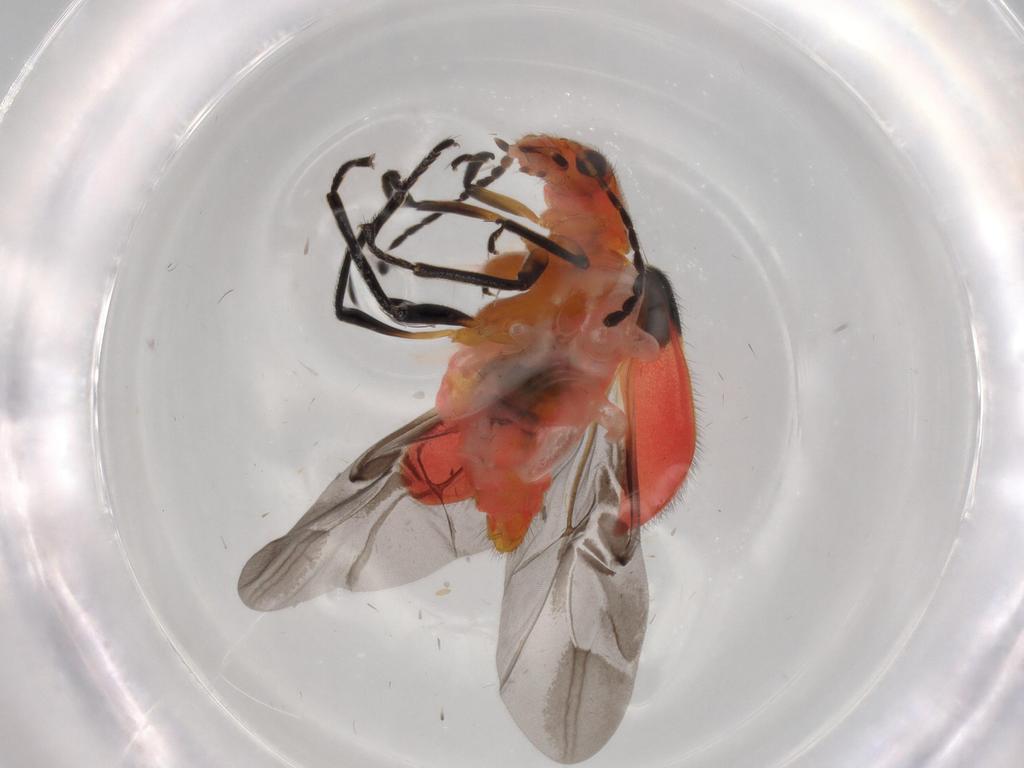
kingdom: Animalia
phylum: Arthropoda
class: Insecta
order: Coleoptera
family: Melyridae
